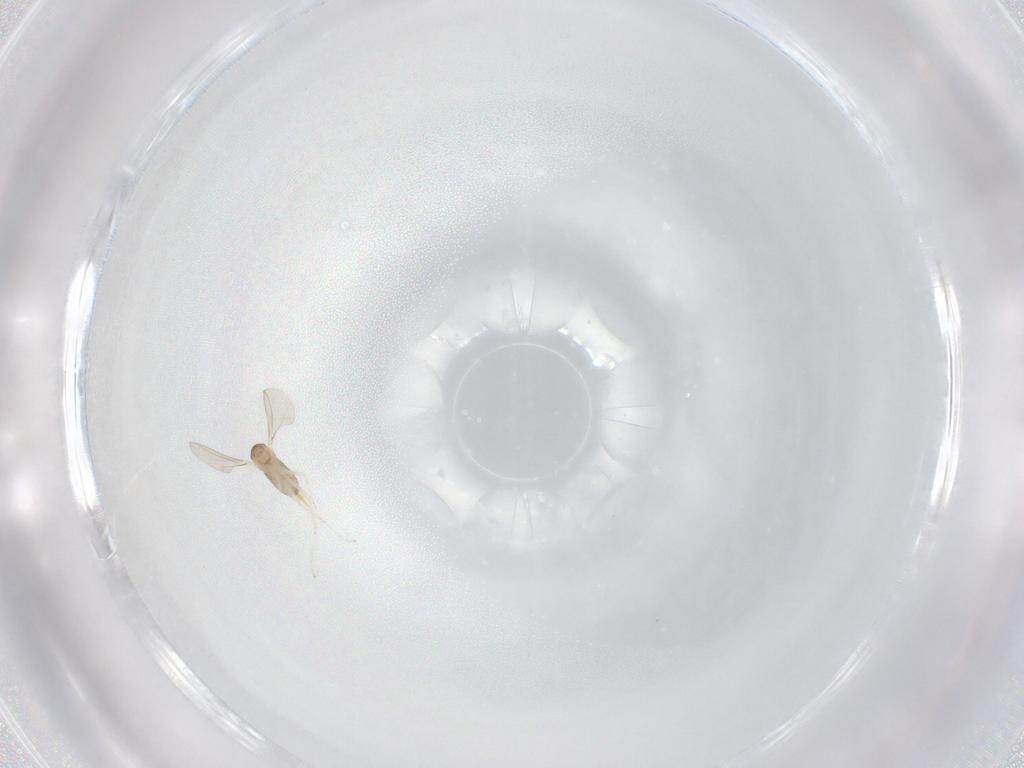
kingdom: Animalia
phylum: Arthropoda
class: Insecta
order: Diptera
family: Cecidomyiidae
